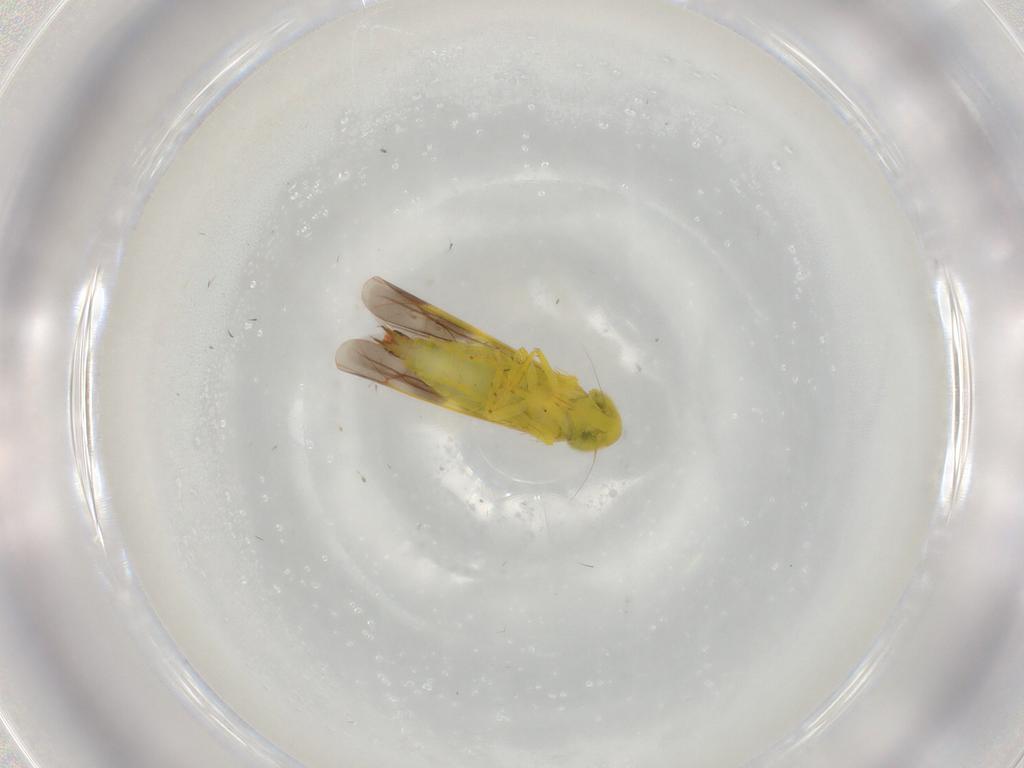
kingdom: Animalia
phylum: Arthropoda
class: Insecta
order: Hemiptera
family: Cicadellidae
